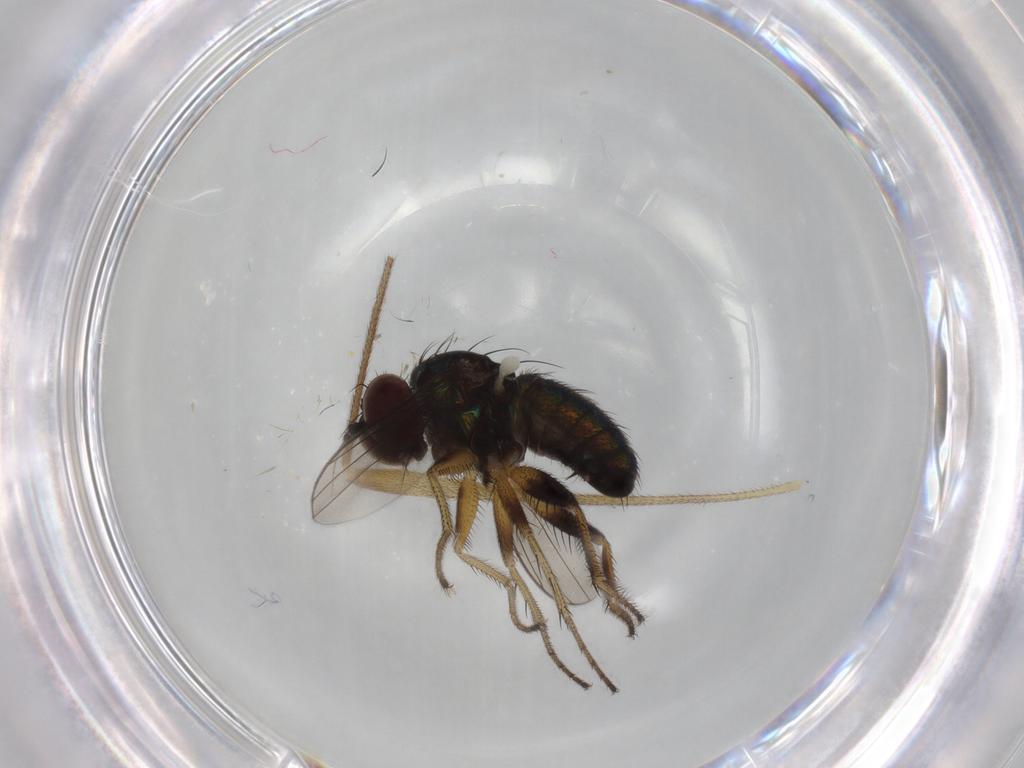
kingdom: Animalia
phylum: Arthropoda
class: Insecta
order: Diptera
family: Dolichopodidae
